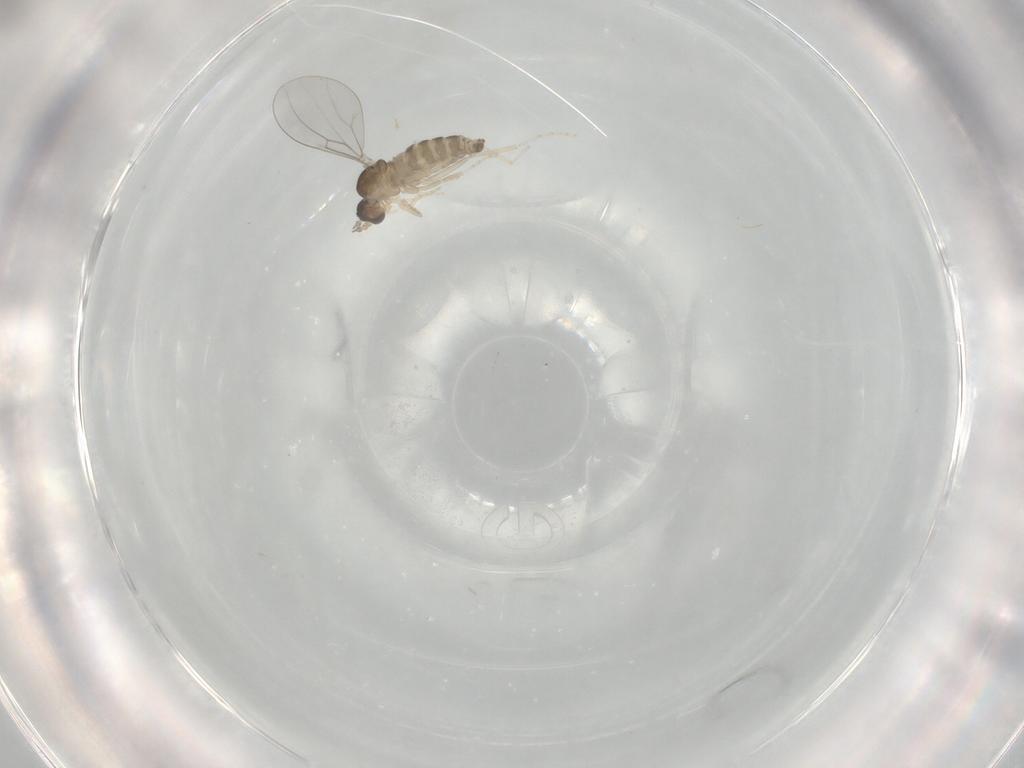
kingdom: Animalia
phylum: Arthropoda
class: Insecta
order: Diptera
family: Cecidomyiidae
